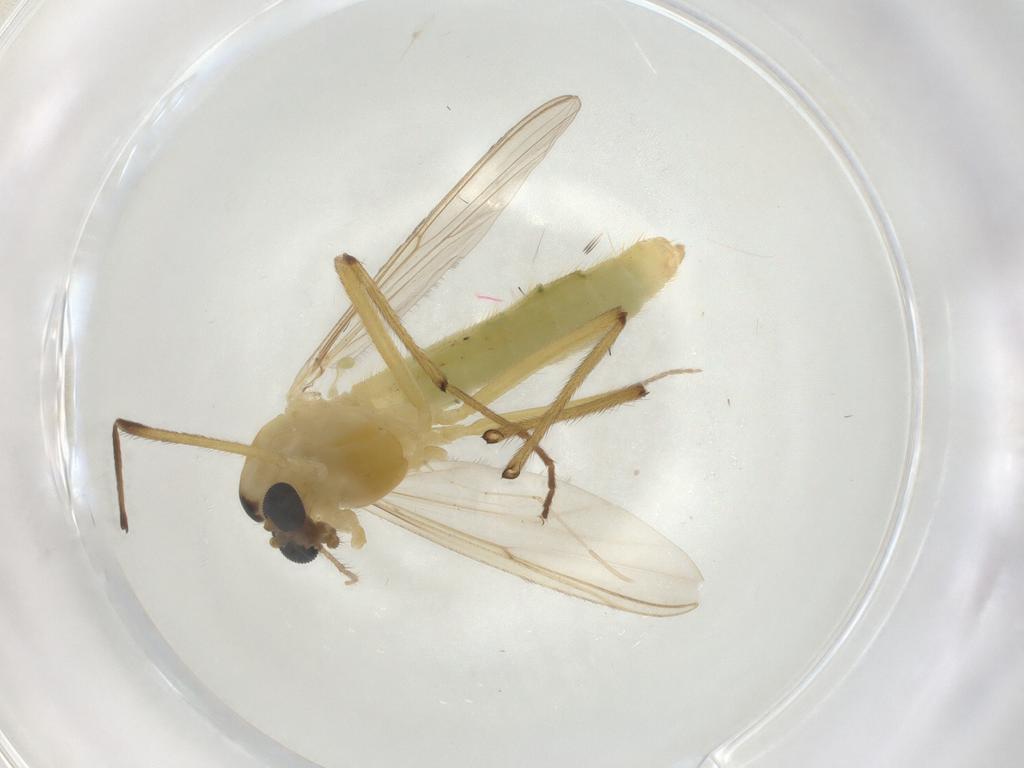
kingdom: Animalia
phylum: Arthropoda
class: Insecta
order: Diptera
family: Chironomidae
